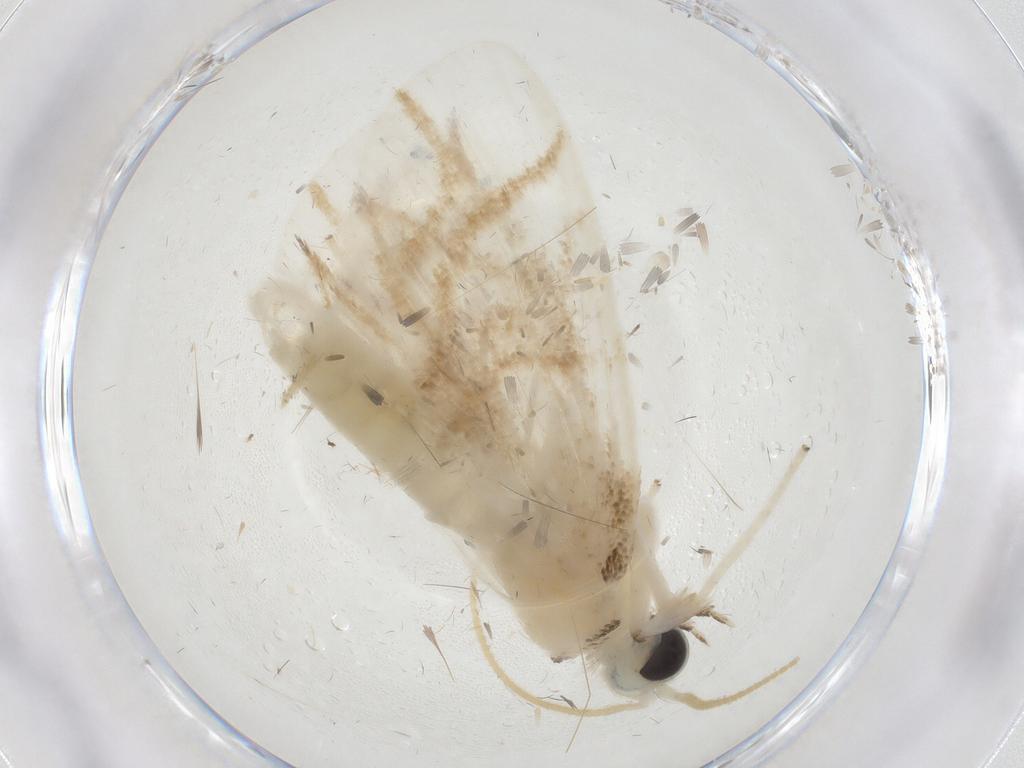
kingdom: Animalia
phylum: Arthropoda
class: Insecta
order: Lepidoptera
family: Crambidae
